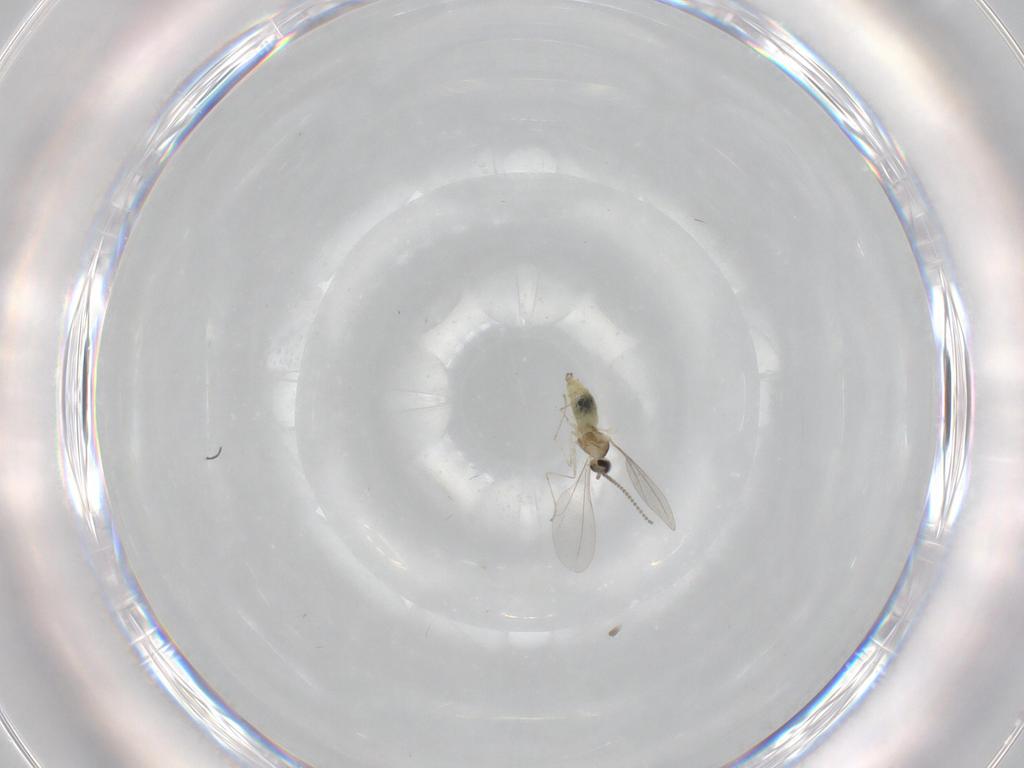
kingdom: Animalia
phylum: Arthropoda
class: Insecta
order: Diptera
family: Cecidomyiidae
